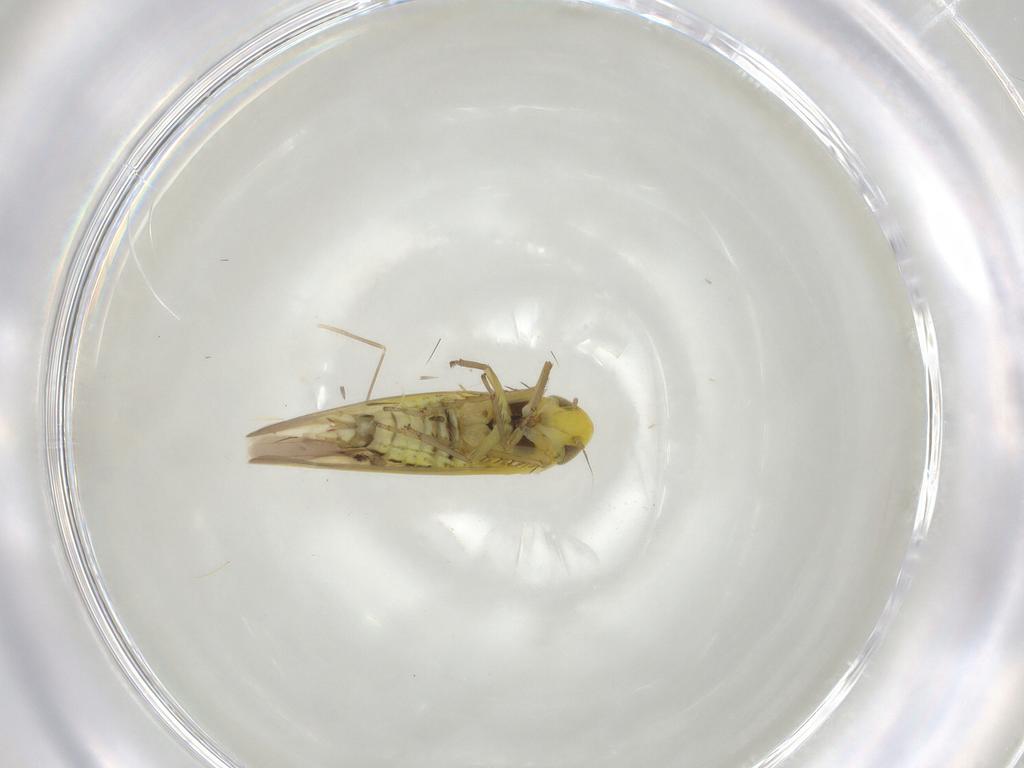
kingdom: Animalia
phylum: Arthropoda
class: Insecta
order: Hemiptera
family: Cicadellidae
